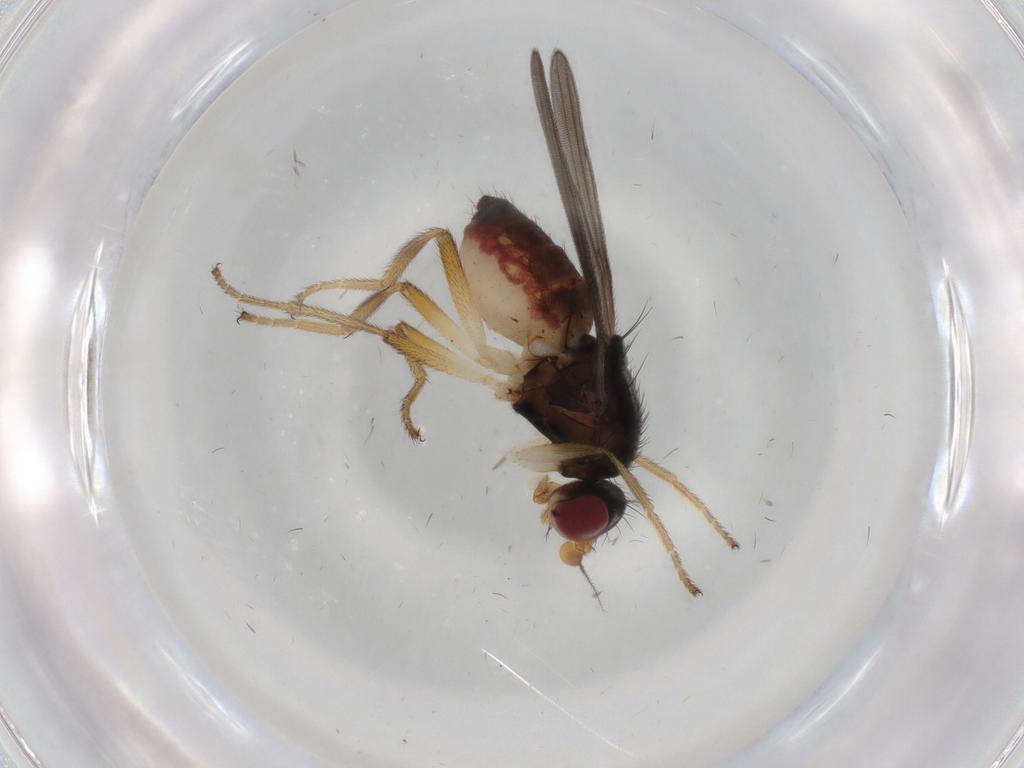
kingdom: Animalia
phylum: Arthropoda
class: Insecta
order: Diptera
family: Chloropidae
